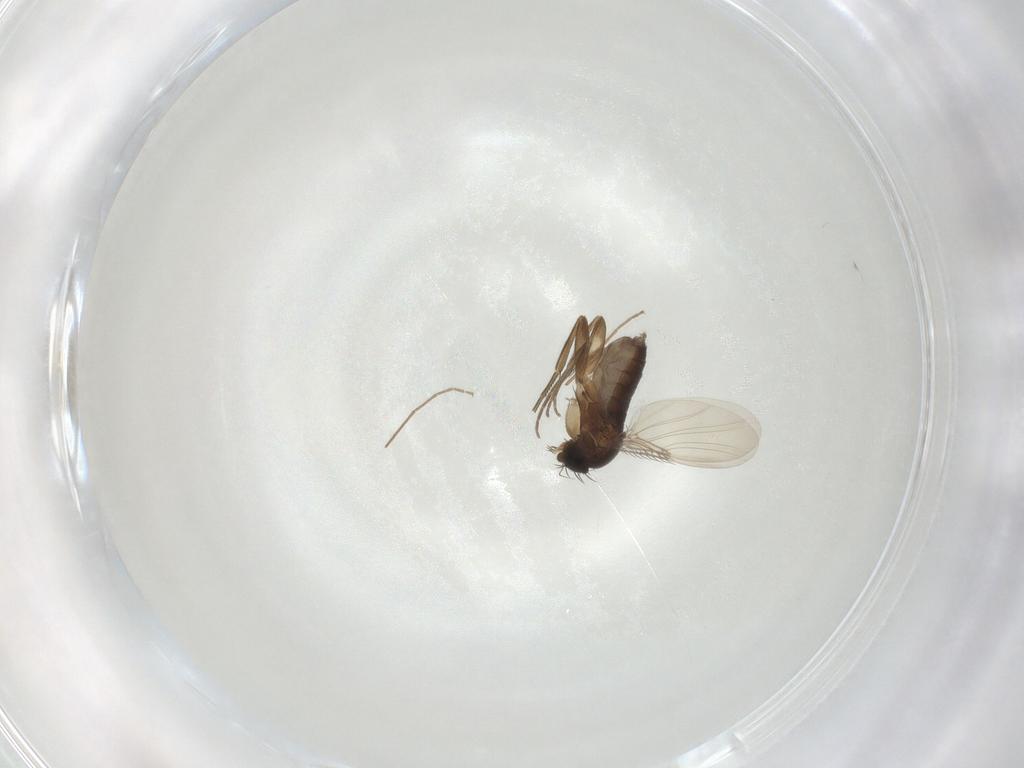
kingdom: Animalia
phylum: Arthropoda
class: Insecta
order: Diptera
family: Phoridae
